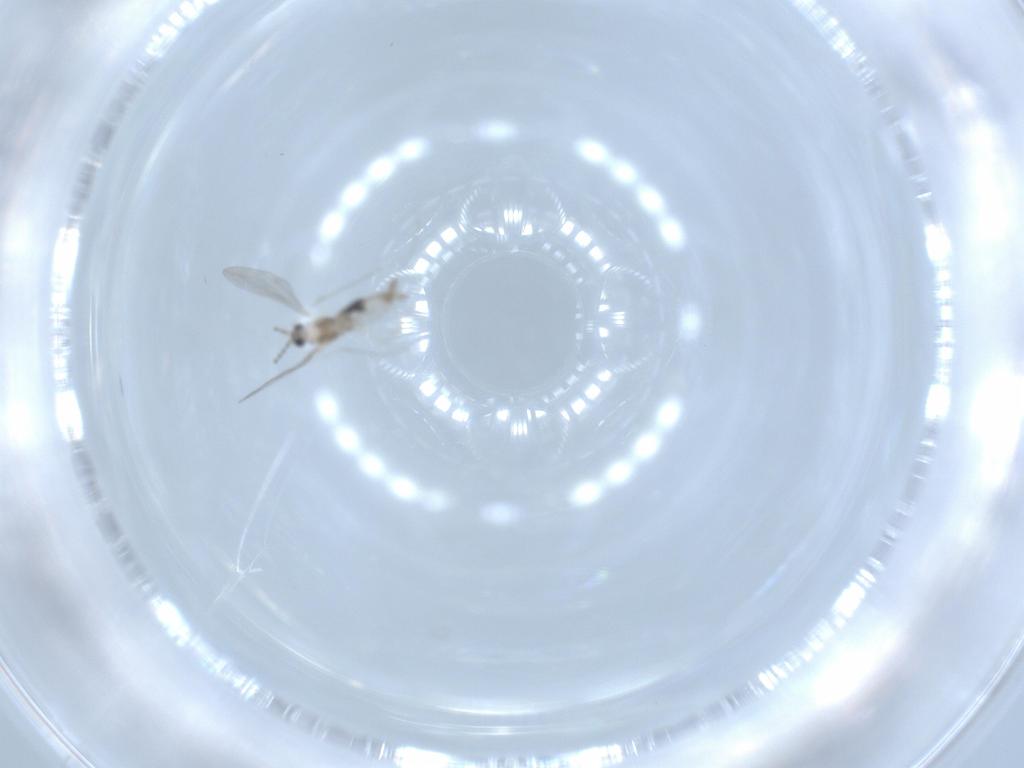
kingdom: Animalia
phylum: Arthropoda
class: Insecta
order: Diptera
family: Cecidomyiidae
